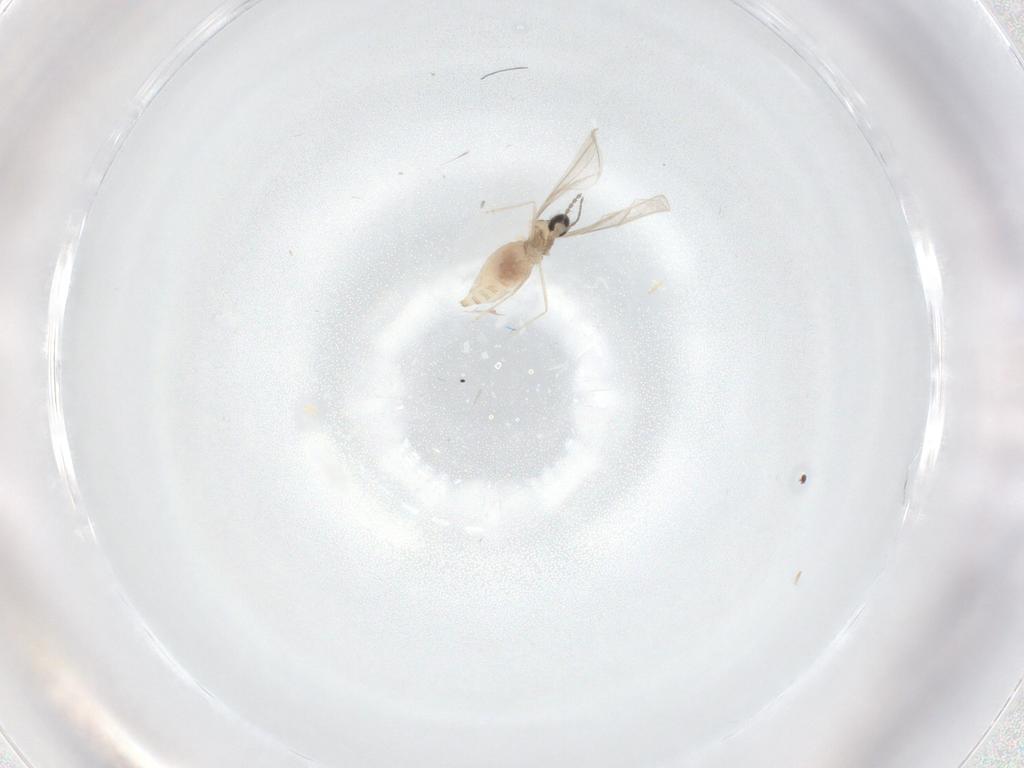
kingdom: Animalia
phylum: Arthropoda
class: Insecta
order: Diptera
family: Cecidomyiidae
